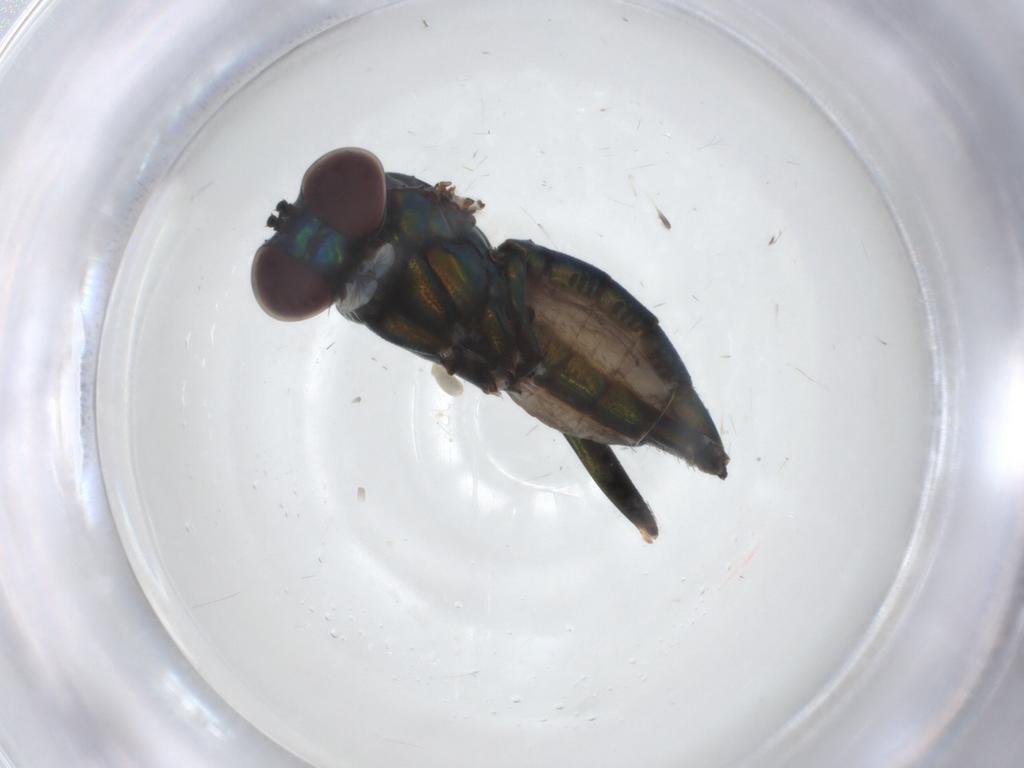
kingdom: Animalia
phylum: Arthropoda
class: Insecta
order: Diptera
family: Dolichopodidae
